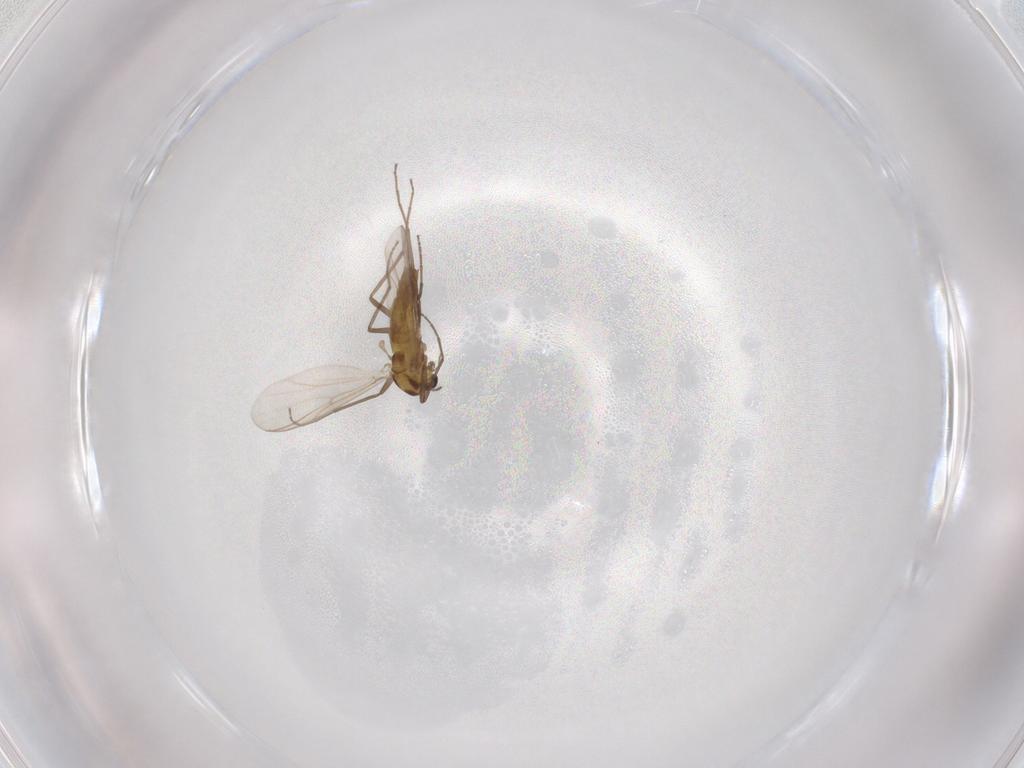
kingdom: Animalia
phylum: Arthropoda
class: Insecta
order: Diptera
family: Chironomidae
